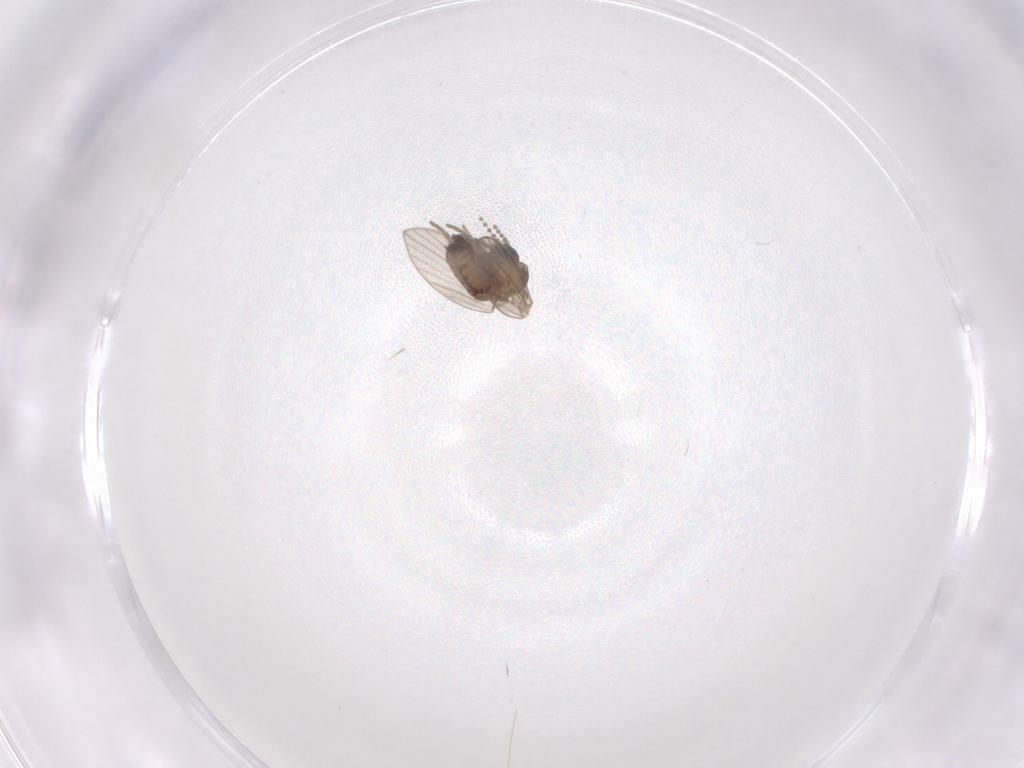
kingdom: Animalia
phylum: Arthropoda
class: Insecta
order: Diptera
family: Psychodidae
